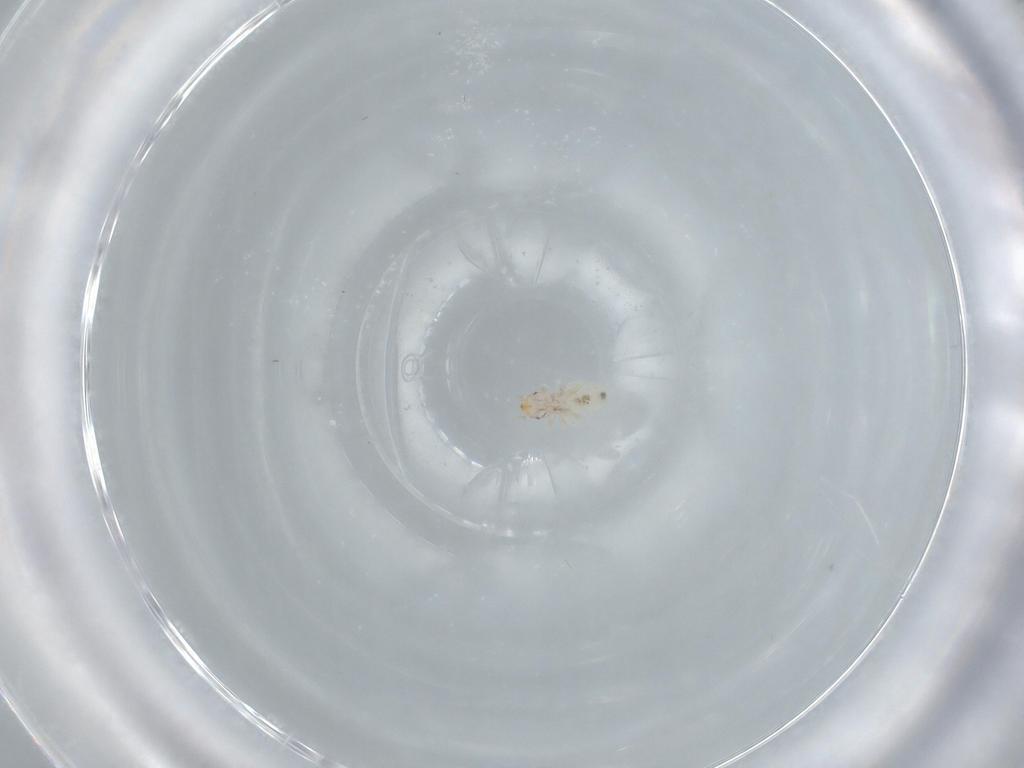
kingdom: Animalia
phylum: Arthropoda
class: Insecta
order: Psocodea
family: Liposcelididae
